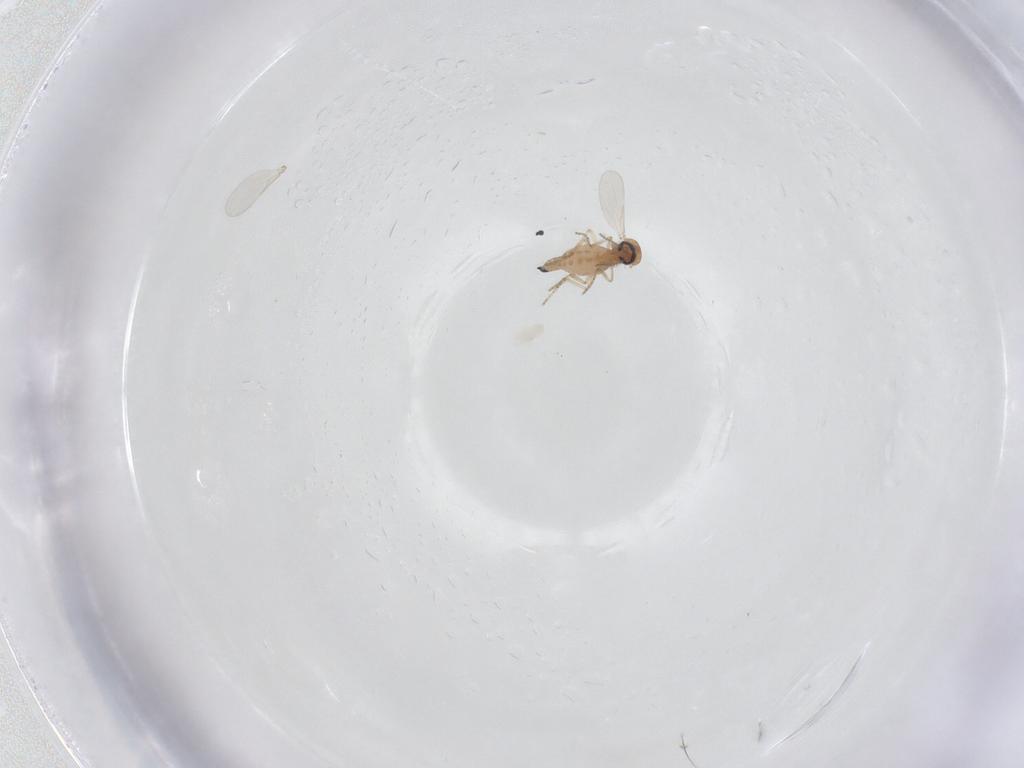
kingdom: Animalia
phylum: Arthropoda
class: Insecta
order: Diptera
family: Ceratopogonidae
